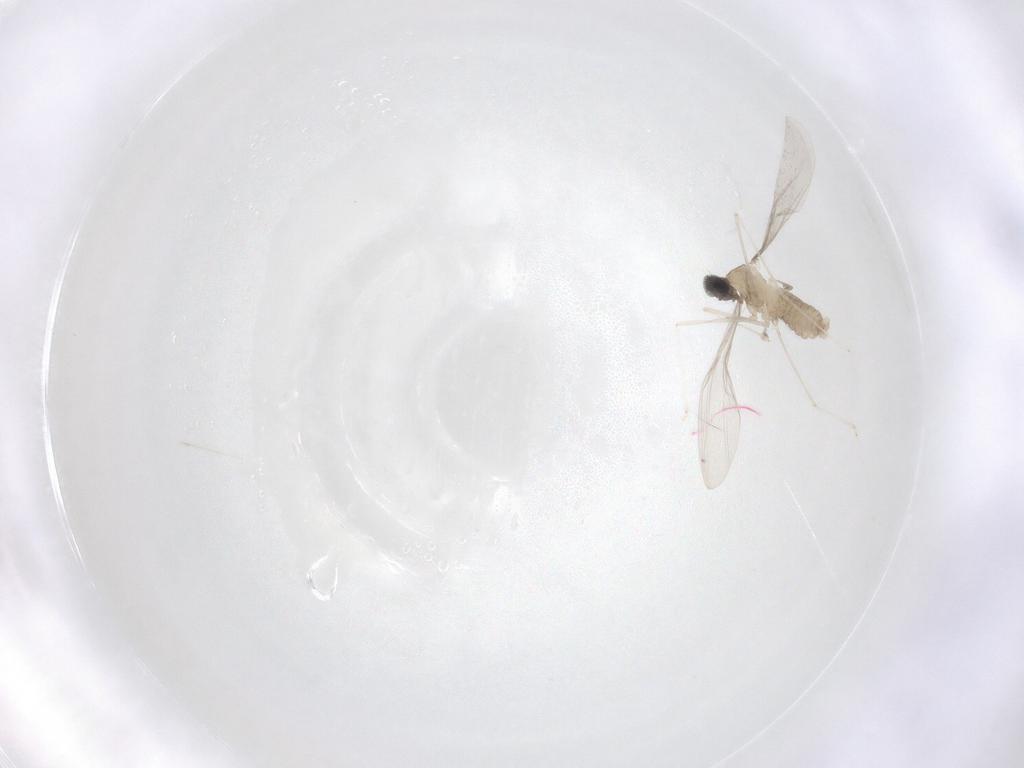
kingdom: Animalia
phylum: Arthropoda
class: Insecta
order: Diptera
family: Cecidomyiidae
